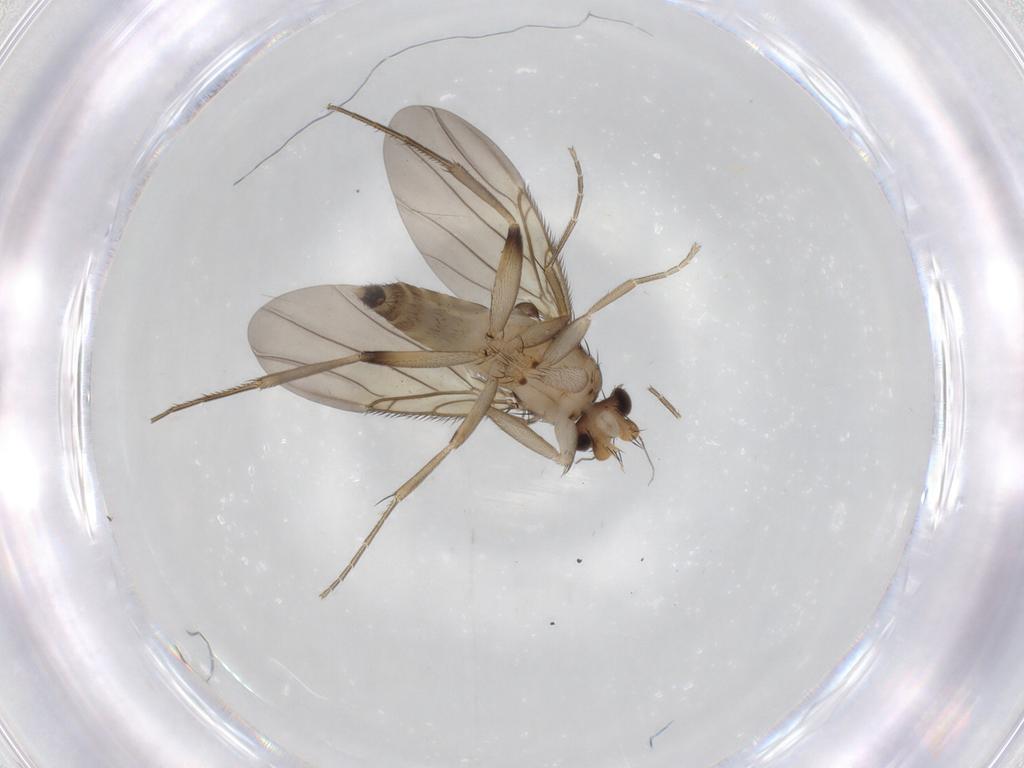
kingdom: Animalia
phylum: Arthropoda
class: Insecta
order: Diptera
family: Phoridae
